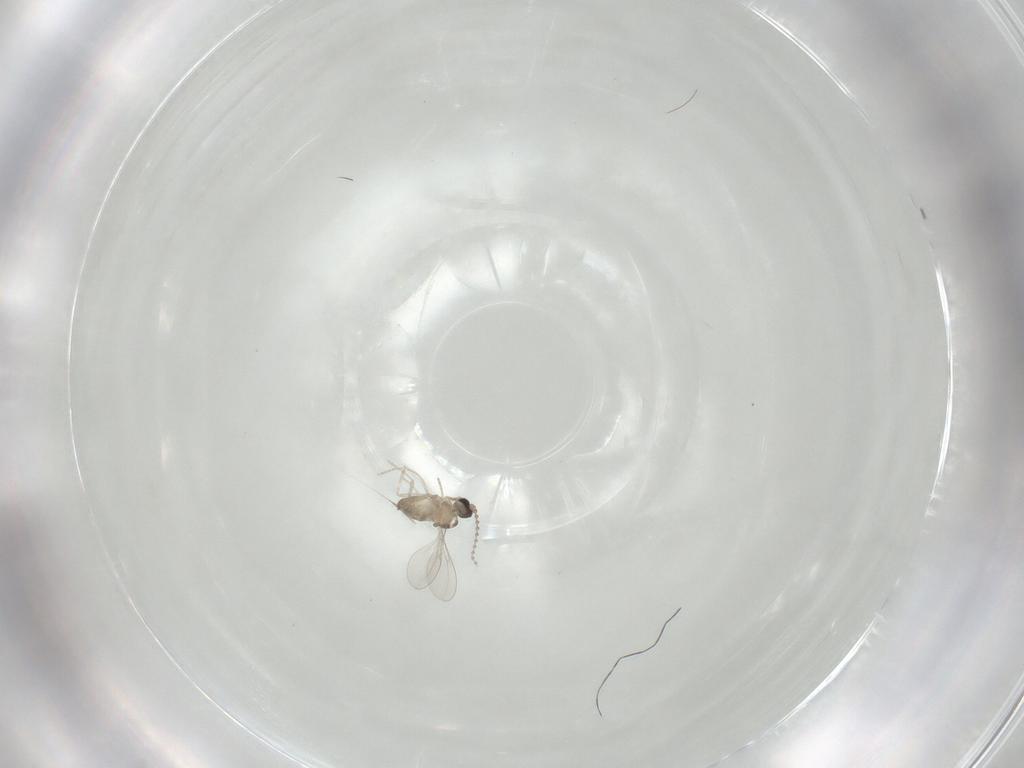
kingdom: Animalia
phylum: Arthropoda
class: Insecta
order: Diptera
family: Cecidomyiidae
